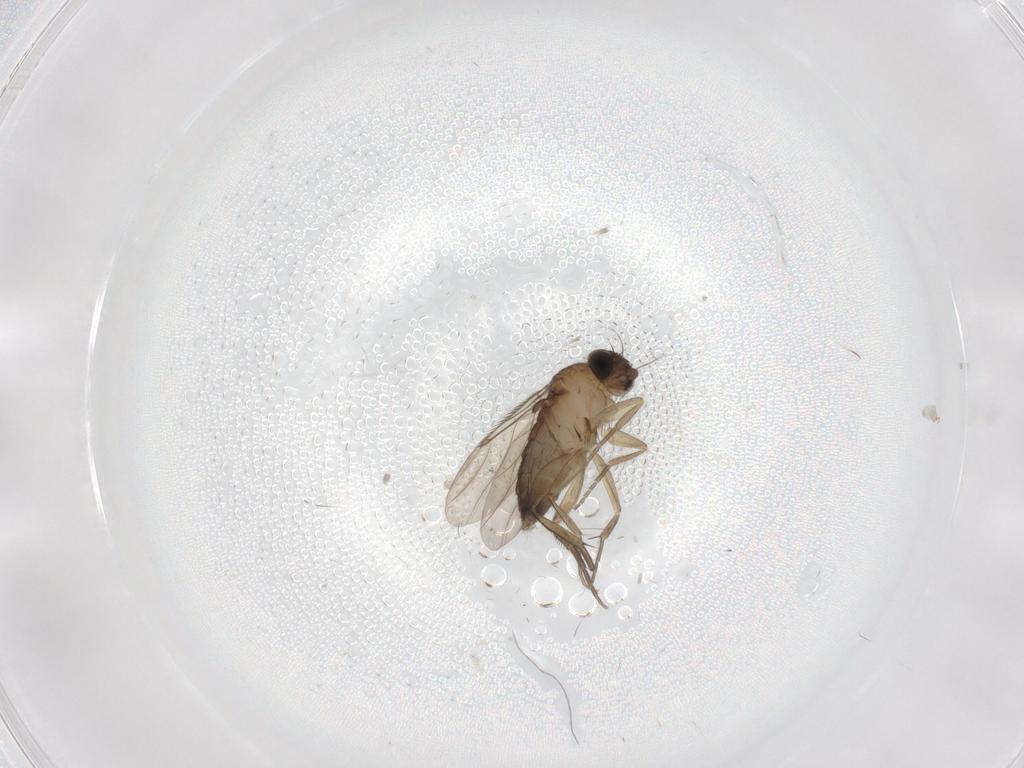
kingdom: Animalia
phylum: Arthropoda
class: Insecta
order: Diptera
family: Phoridae
